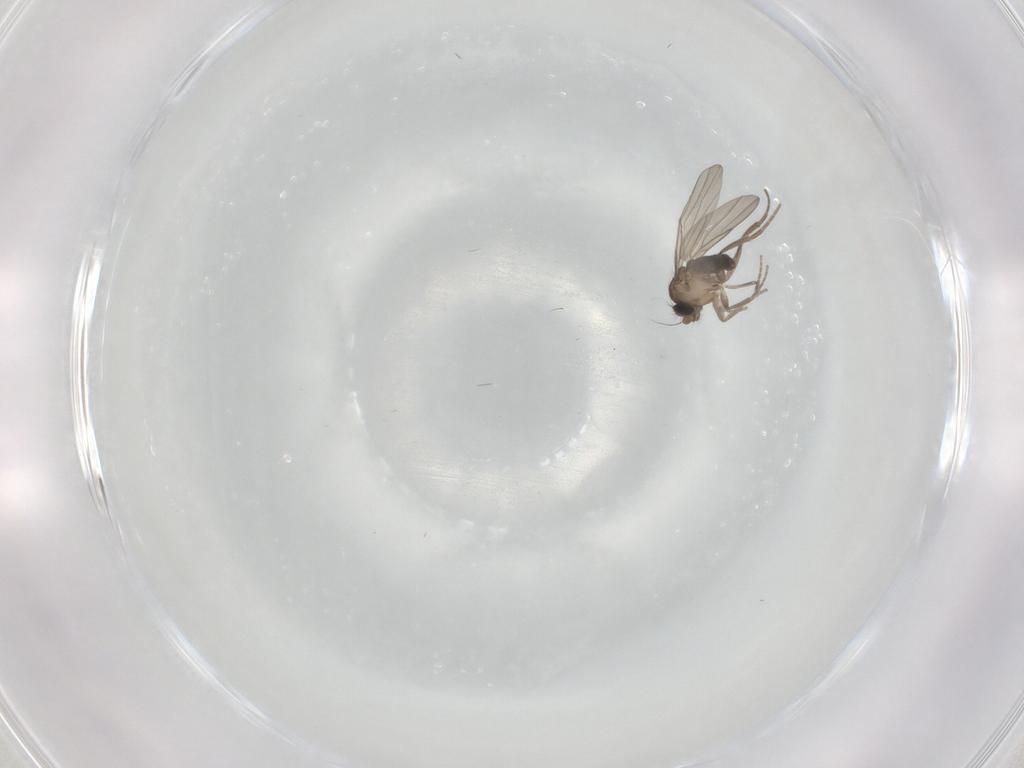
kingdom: Animalia
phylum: Arthropoda
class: Insecta
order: Diptera
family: Phoridae
